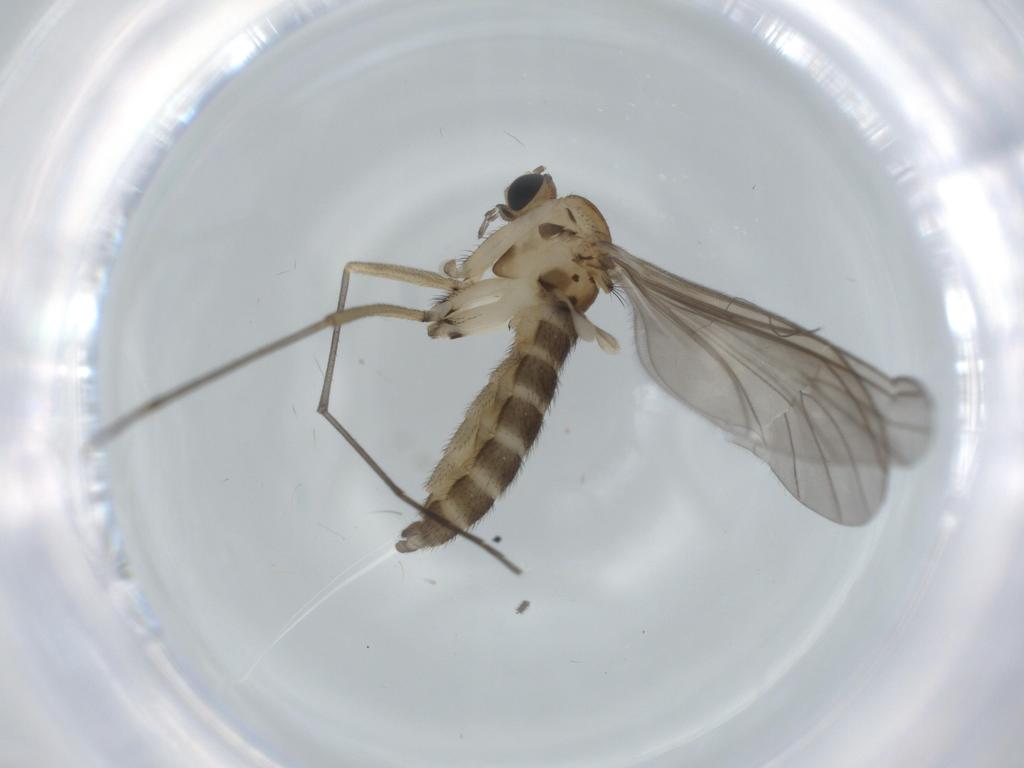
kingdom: Animalia
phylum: Arthropoda
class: Insecta
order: Diptera
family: Sciaridae
